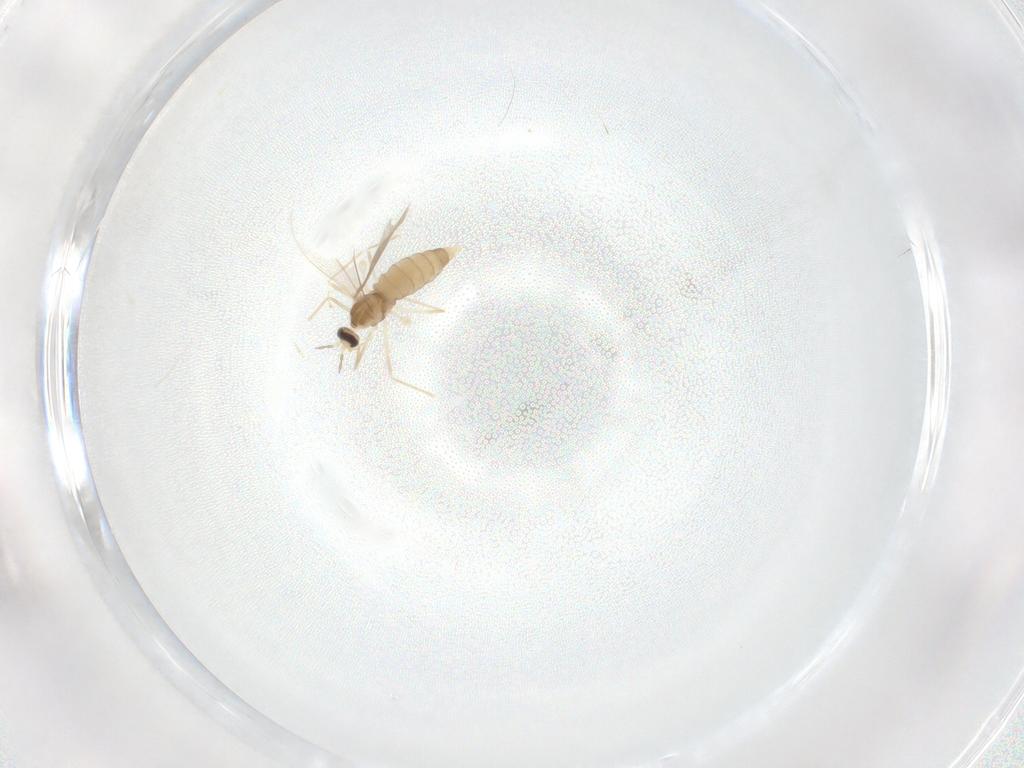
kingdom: Animalia
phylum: Arthropoda
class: Insecta
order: Diptera
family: Cecidomyiidae
